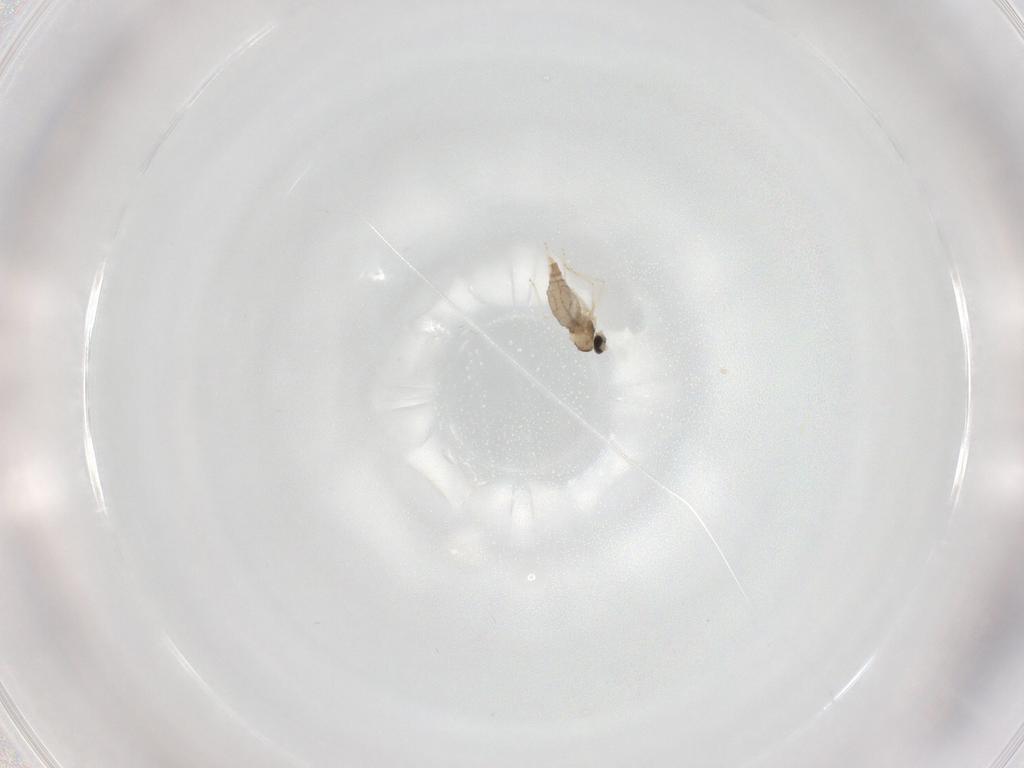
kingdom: Animalia
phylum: Arthropoda
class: Insecta
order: Diptera
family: Cecidomyiidae
